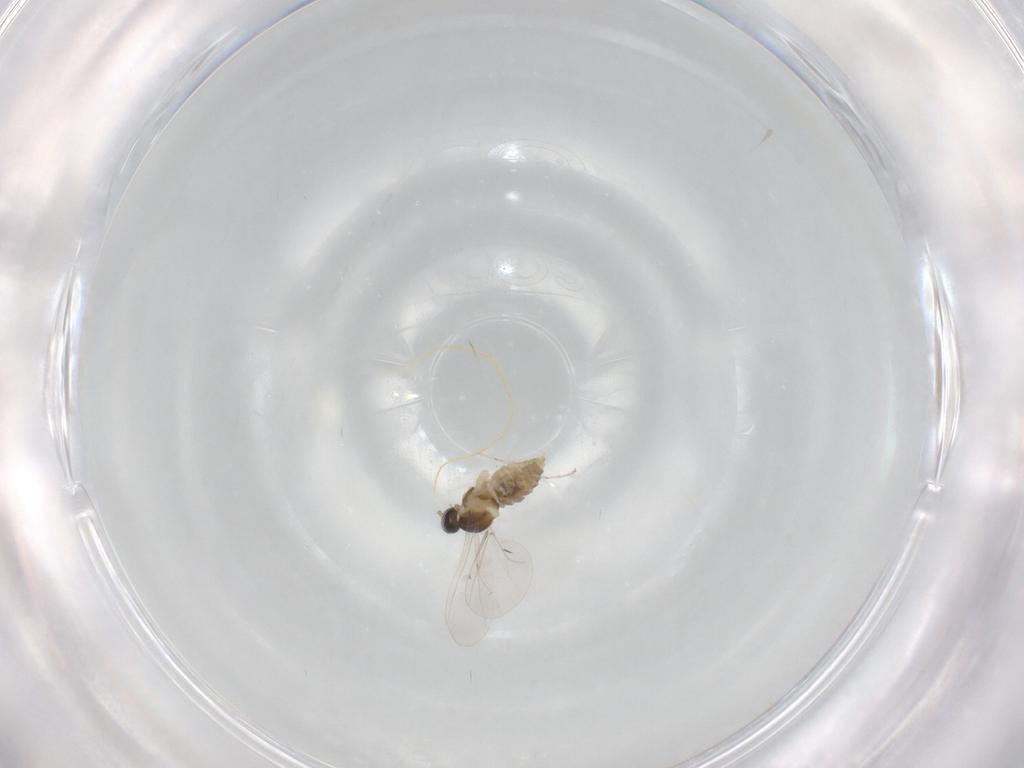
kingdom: Animalia
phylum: Arthropoda
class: Insecta
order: Diptera
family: Cecidomyiidae
